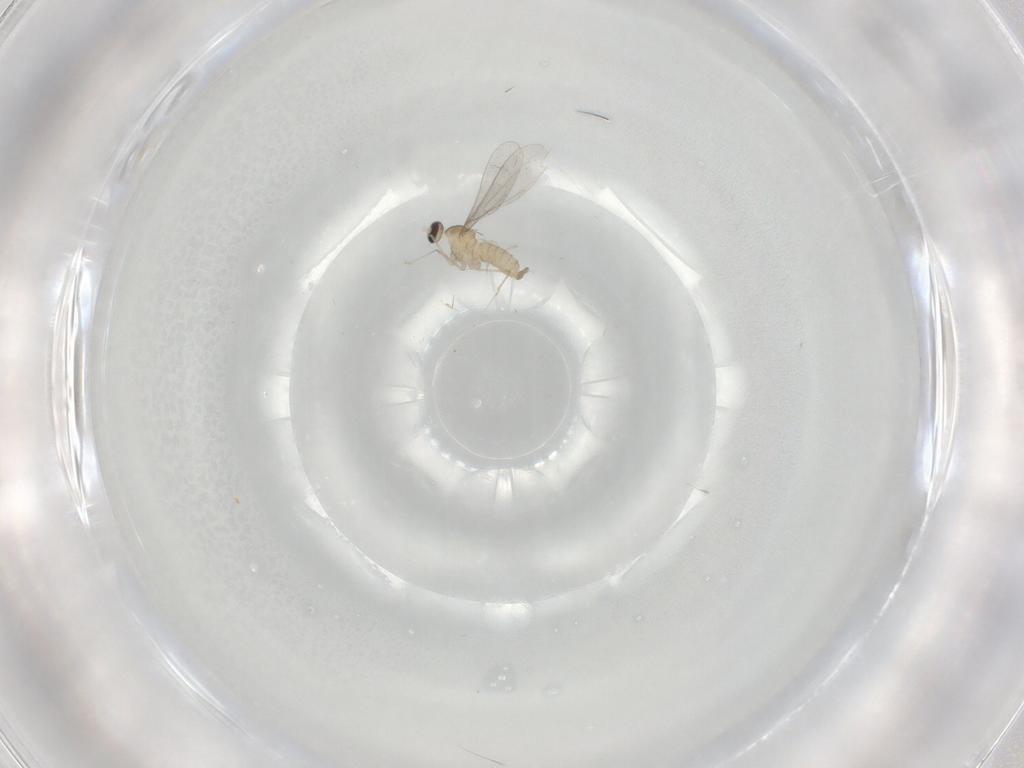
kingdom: Animalia
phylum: Arthropoda
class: Insecta
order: Diptera
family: Cecidomyiidae
